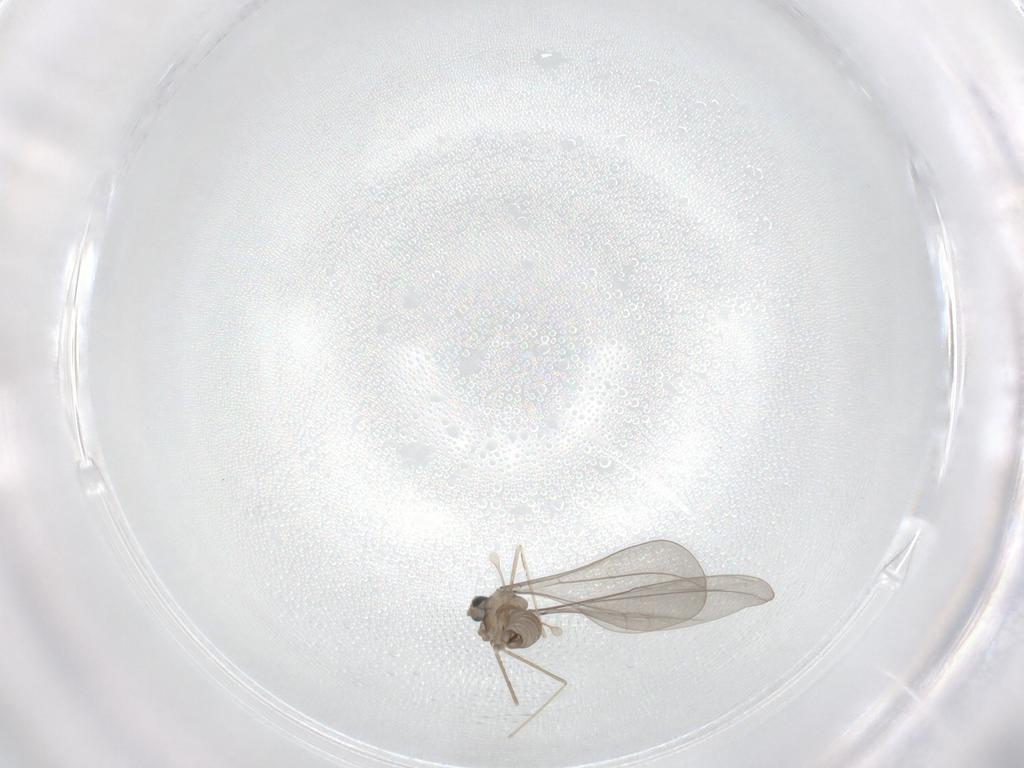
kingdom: Animalia
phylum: Arthropoda
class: Insecta
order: Diptera
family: Cecidomyiidae
